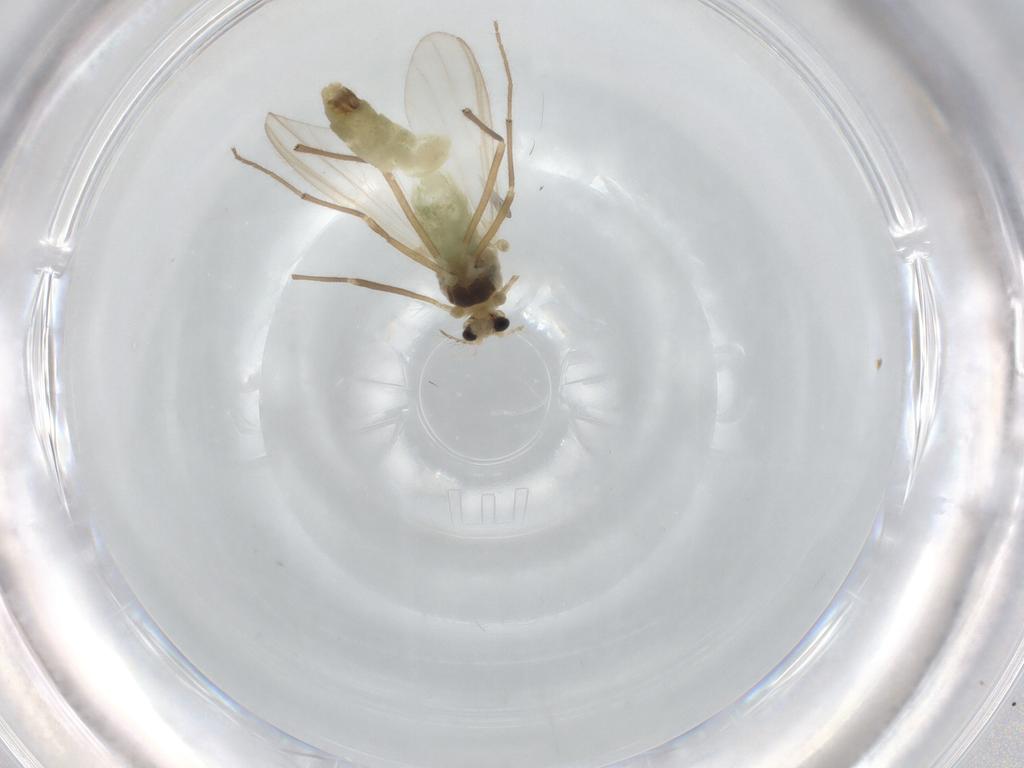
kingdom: Animalia
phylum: Arthropoda
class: Insecta
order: Diptera
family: Chironomidae
